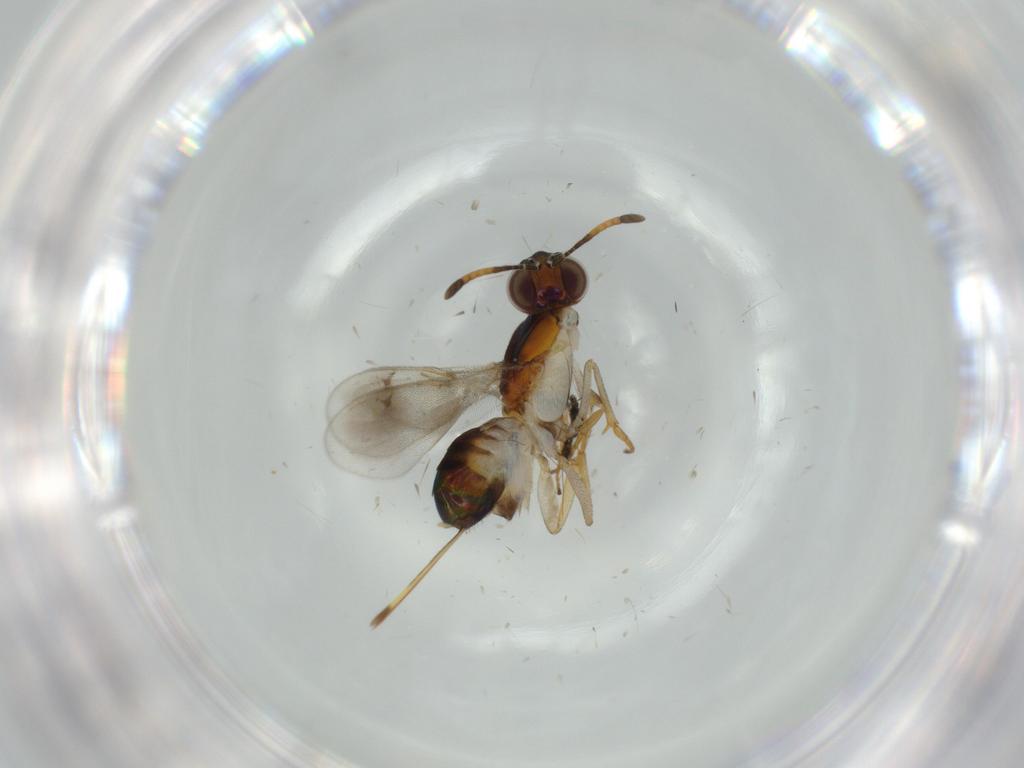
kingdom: Animalia
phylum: Arthropoda
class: Insecta
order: Hymenoptera
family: Pteromalidae
